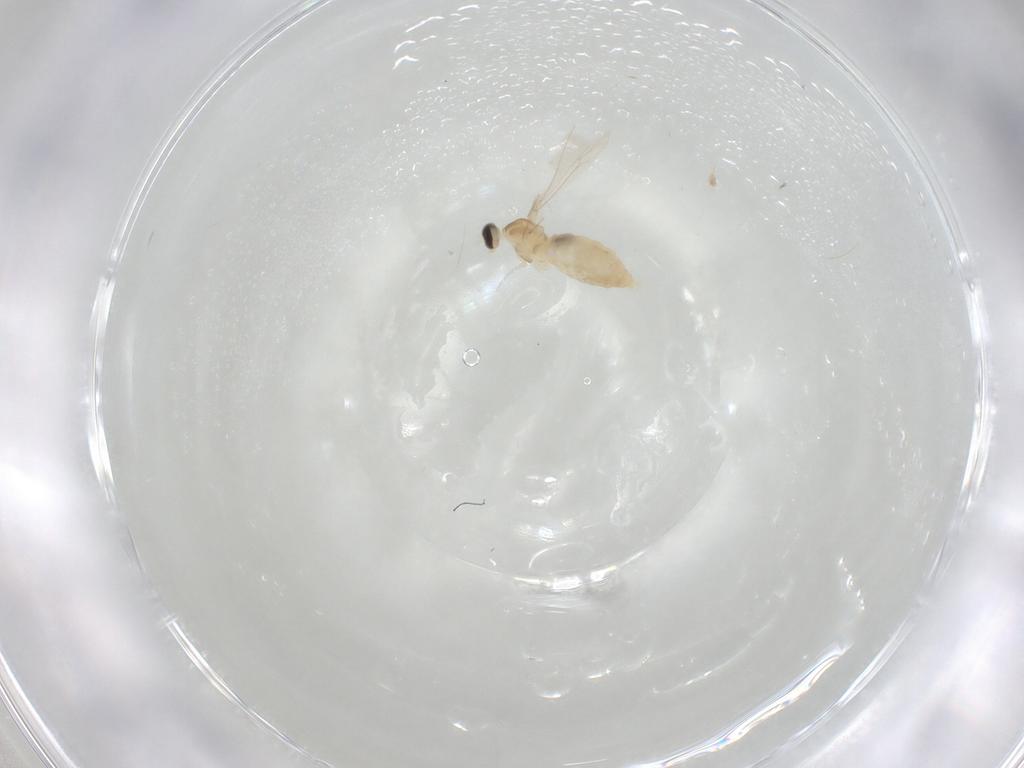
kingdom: Animalia
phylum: Arthropoda
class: Insecta
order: Diptera
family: Cecidomyiidae
